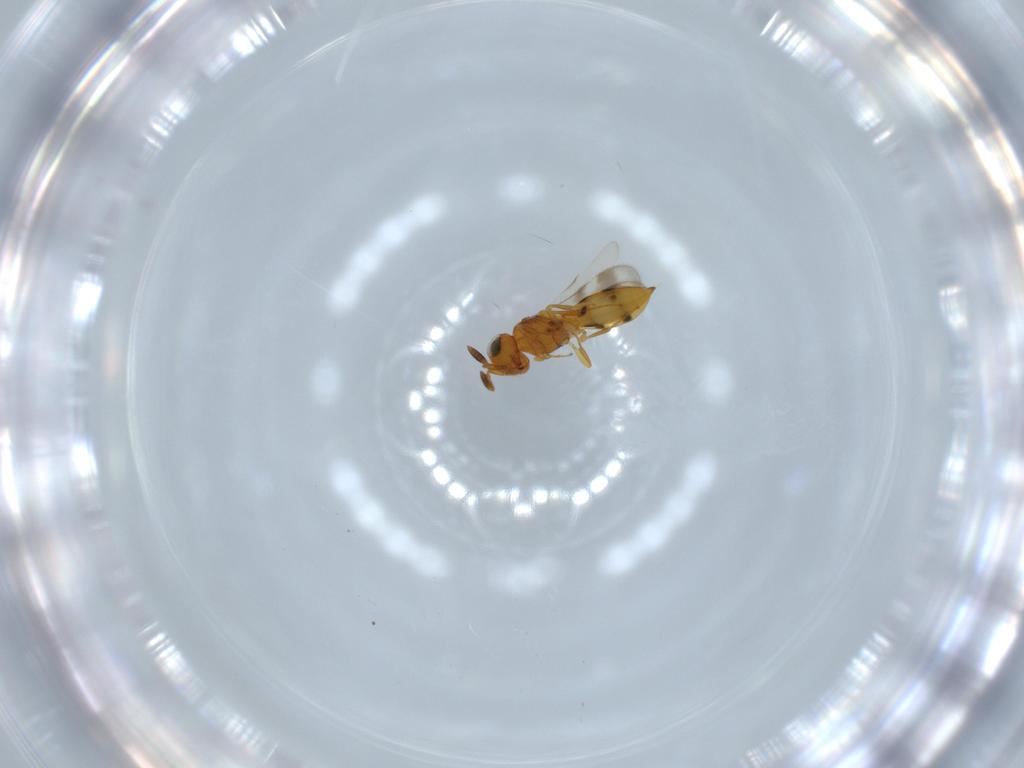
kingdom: Animalia
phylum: Arthropoda
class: Insecta
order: Hymenoptera
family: Scelionidae
